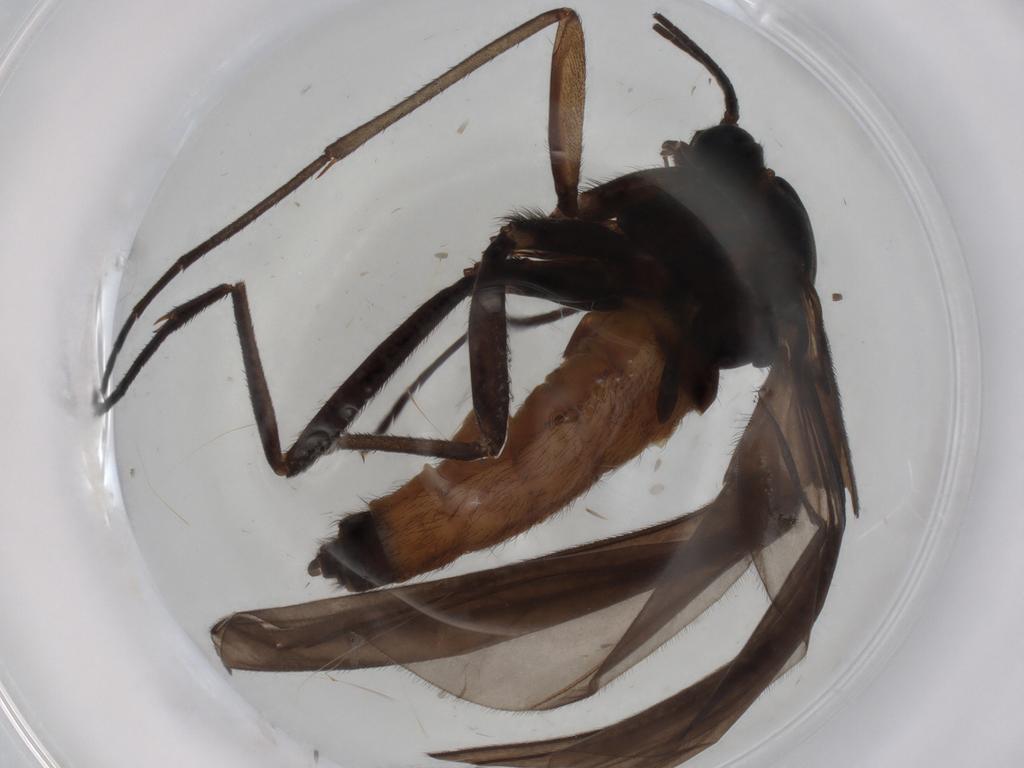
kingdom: Animalia
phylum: Arthropoda
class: Insecta
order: Diptera
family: Sciaridae
